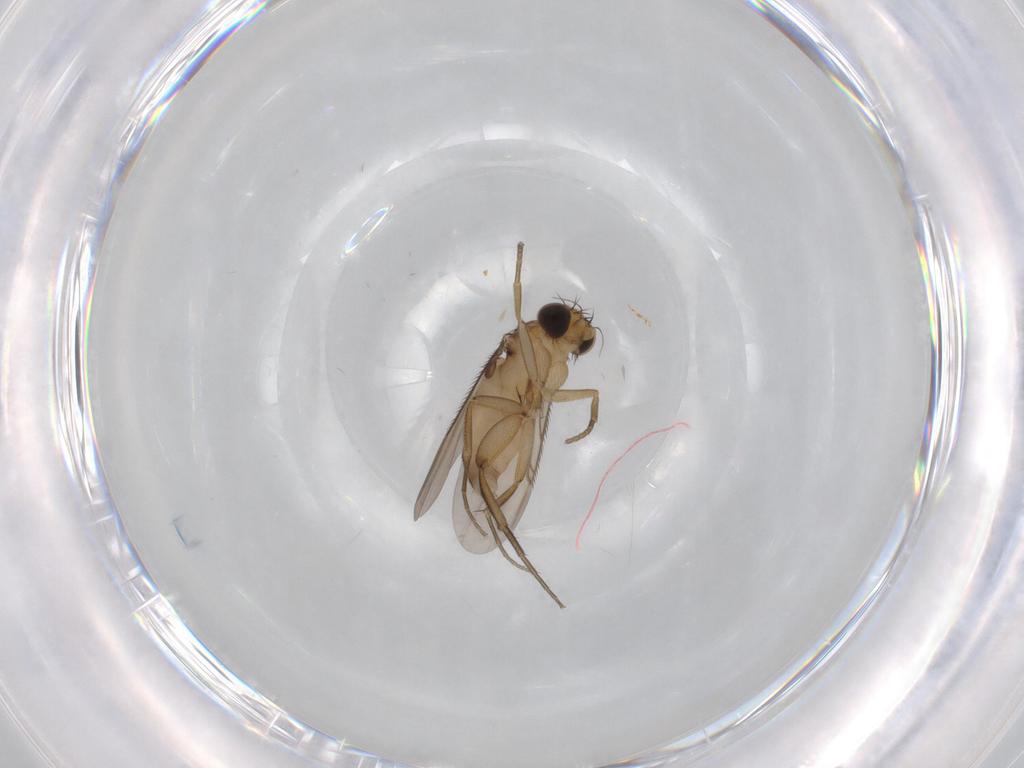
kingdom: Animalia
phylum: Arthropoda
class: Insecta
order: Diptera
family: Phoridae
